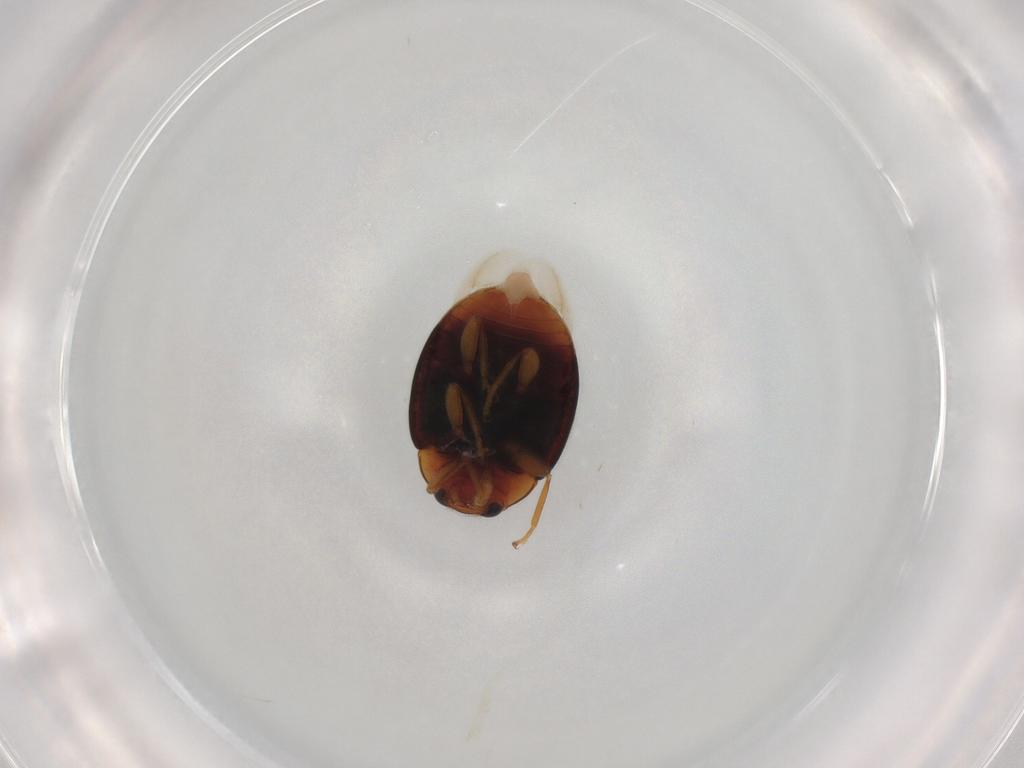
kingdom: Animalia
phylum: Arthropoda
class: Insecta
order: Coleoptera
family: Coccinellidae
